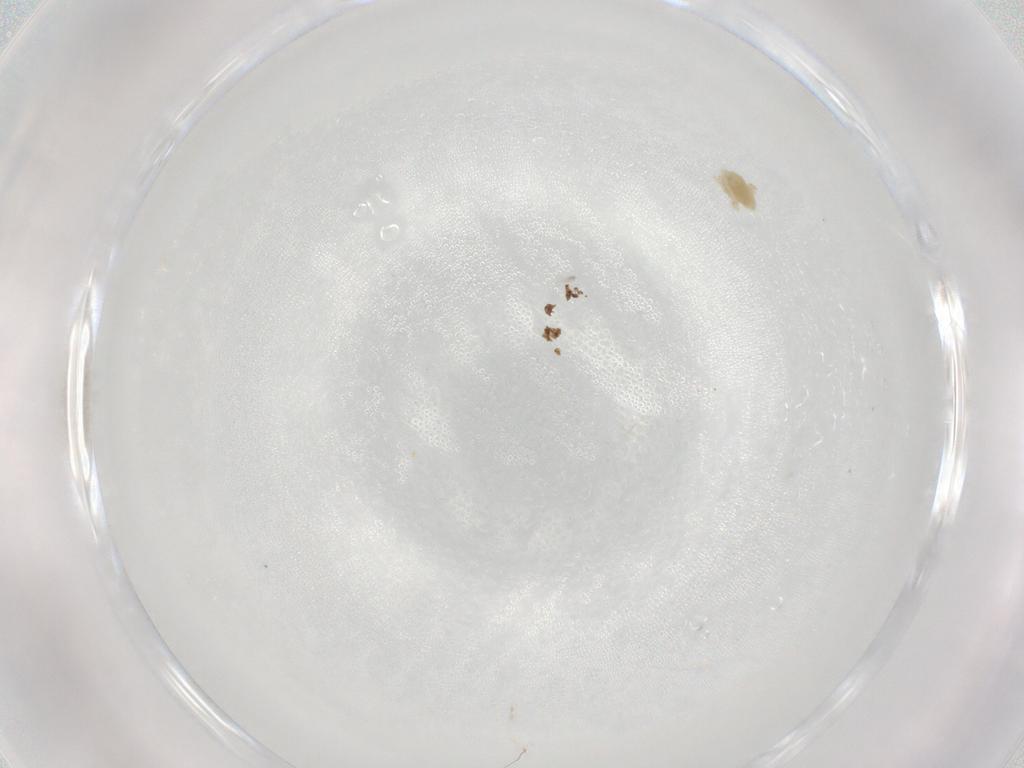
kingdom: Animalia
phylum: Arthropoda
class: Arachnida
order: Trombidiformes
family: Eupodidae
